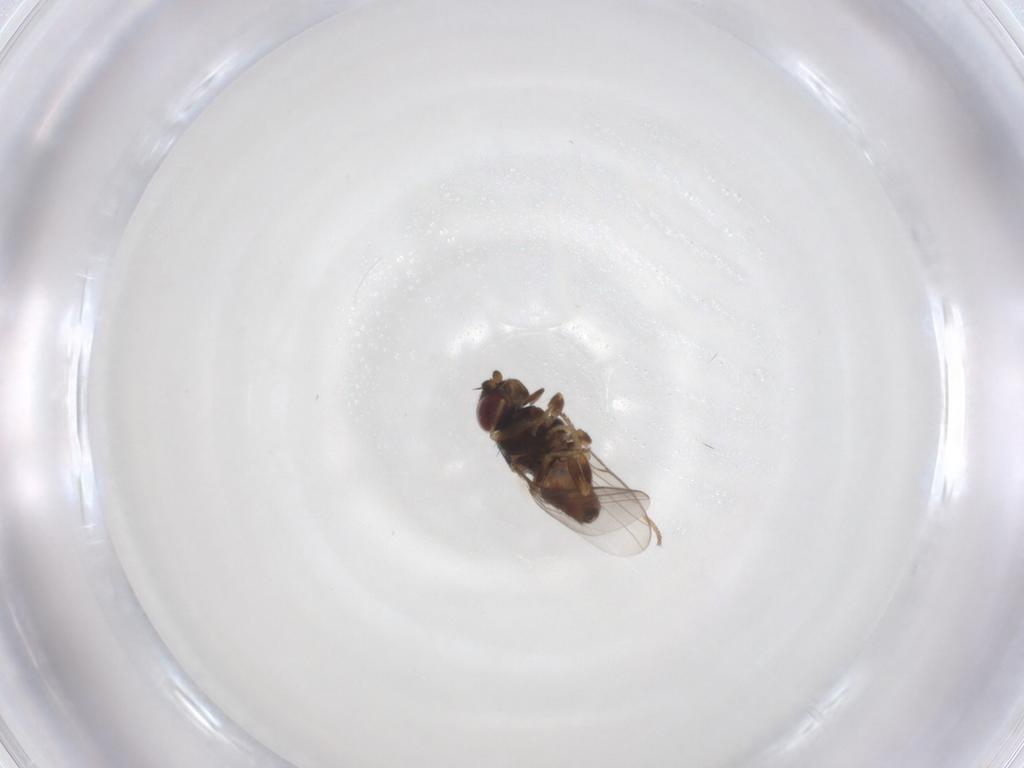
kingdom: Animalia
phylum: Arthropoda
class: Insecta
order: Diptera
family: Chloropidae
